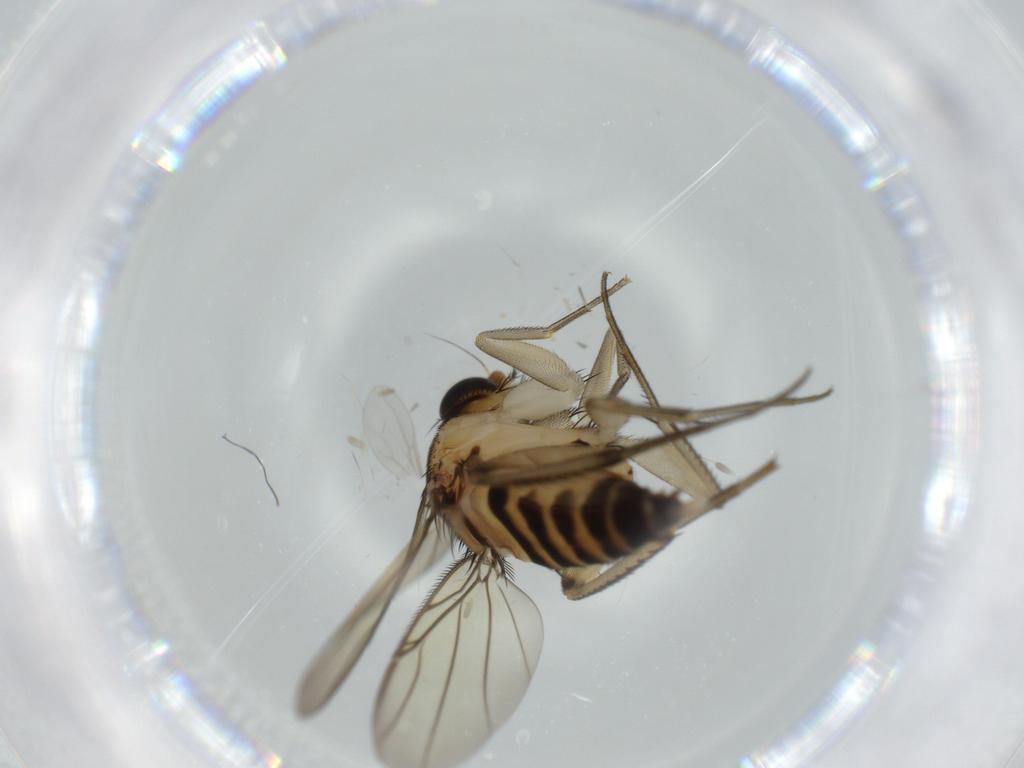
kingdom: Animalia
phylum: Arthropoda
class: Insecta
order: Diptera
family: Phoridae
